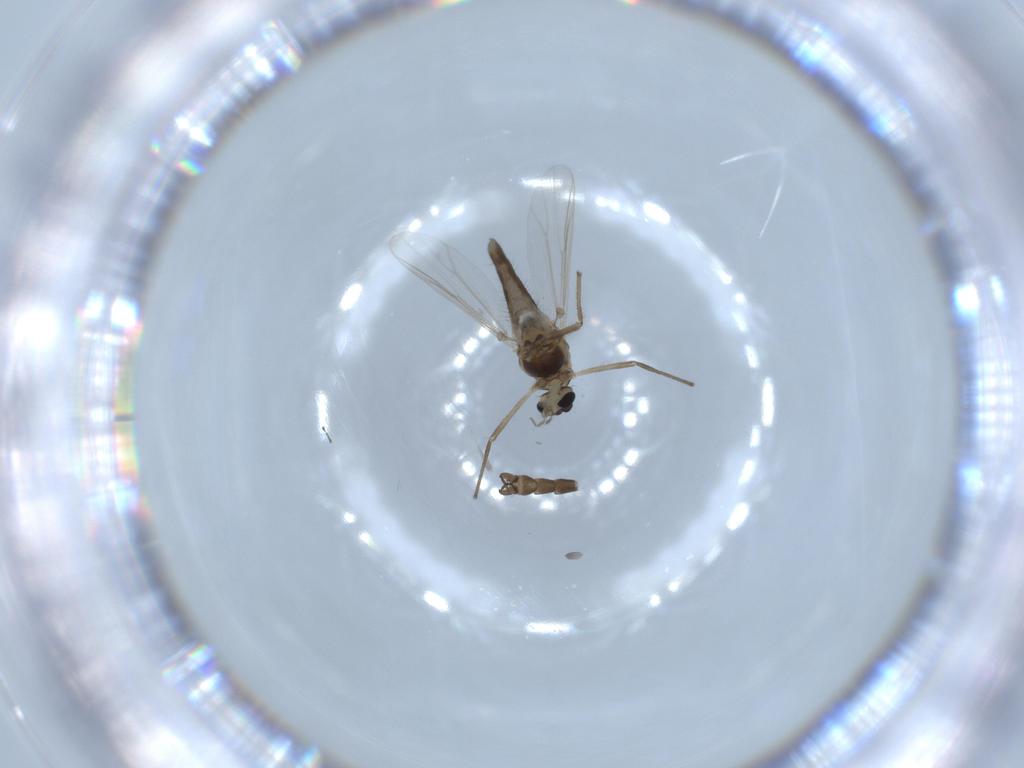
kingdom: Animalia
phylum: Arthropoda
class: Insecta
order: Diptera
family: Chironomidae
